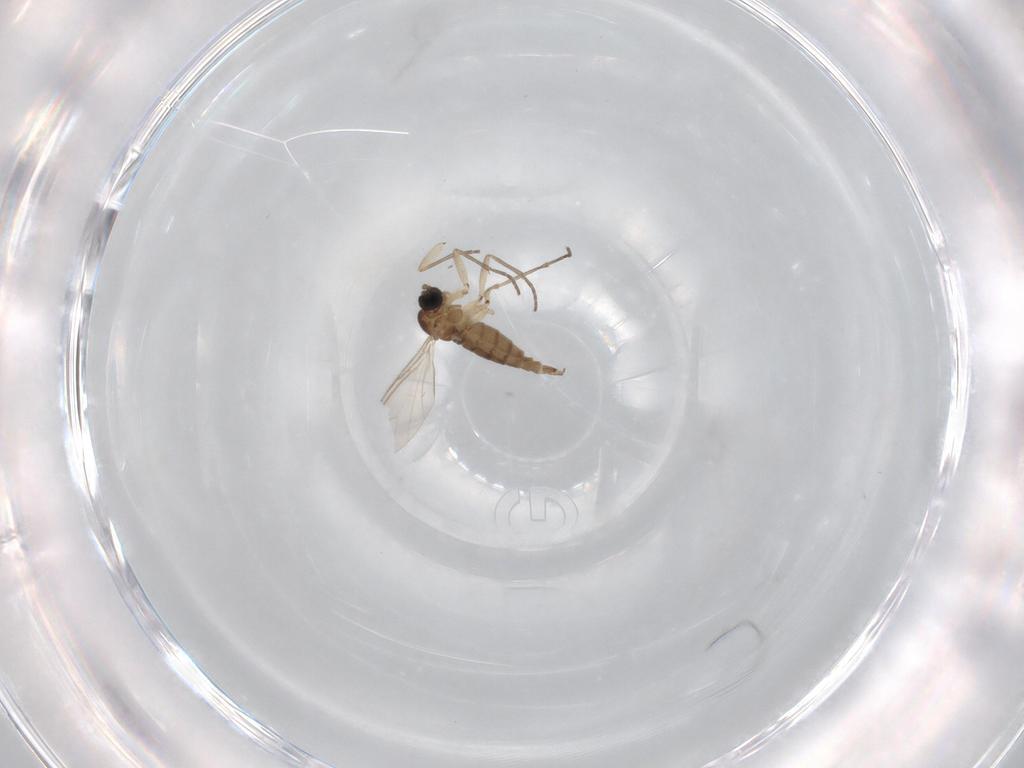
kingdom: Animalia
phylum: Arthropoda
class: Insecta
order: Diptera
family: Sciaridae
